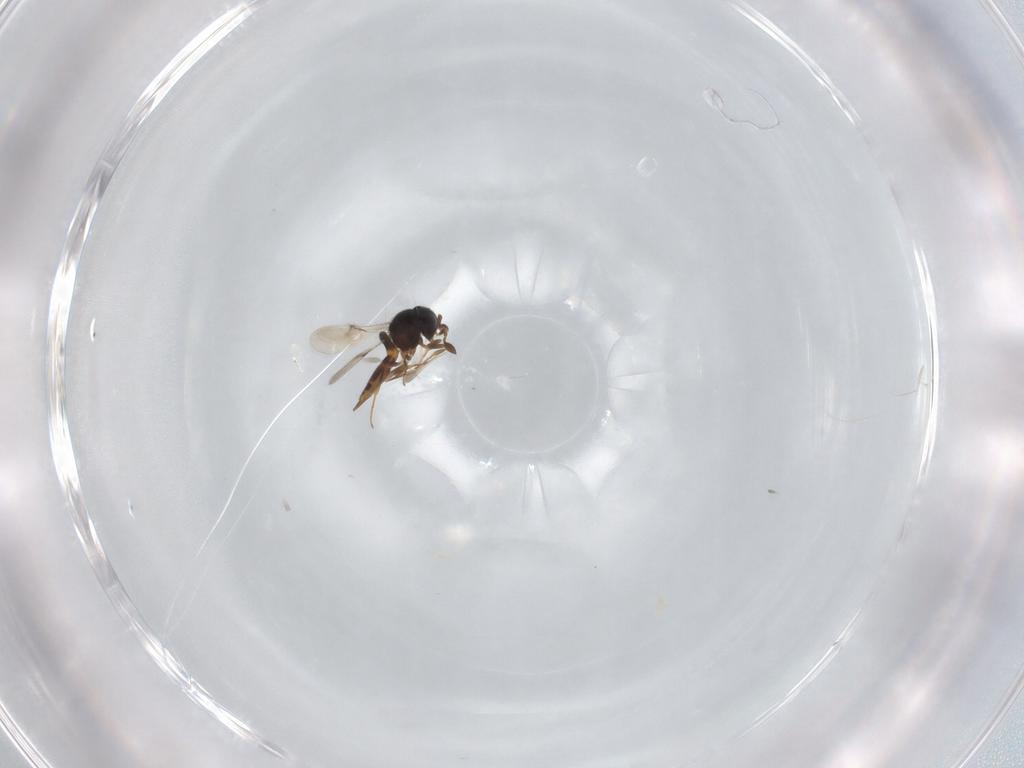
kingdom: Animalia
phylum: Arthropoda
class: Insecta
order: Hymenoptera
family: Scelionidae
